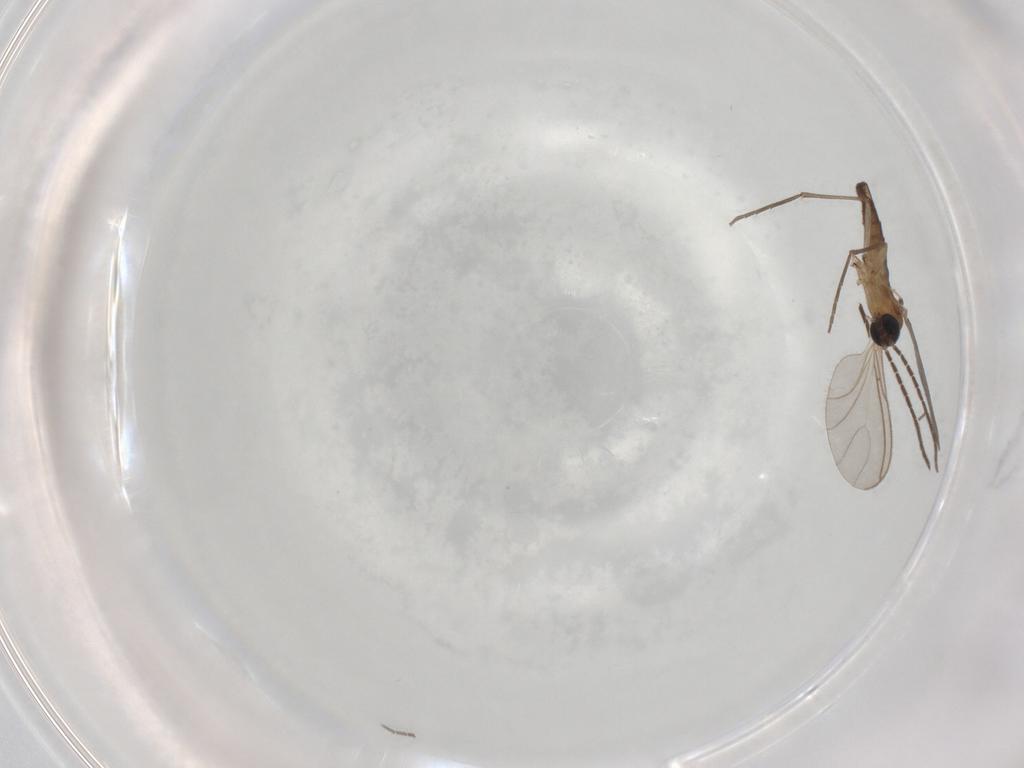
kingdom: Animalia
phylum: Arthropoda
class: Insecta
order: Diptera
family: Sciaridae
